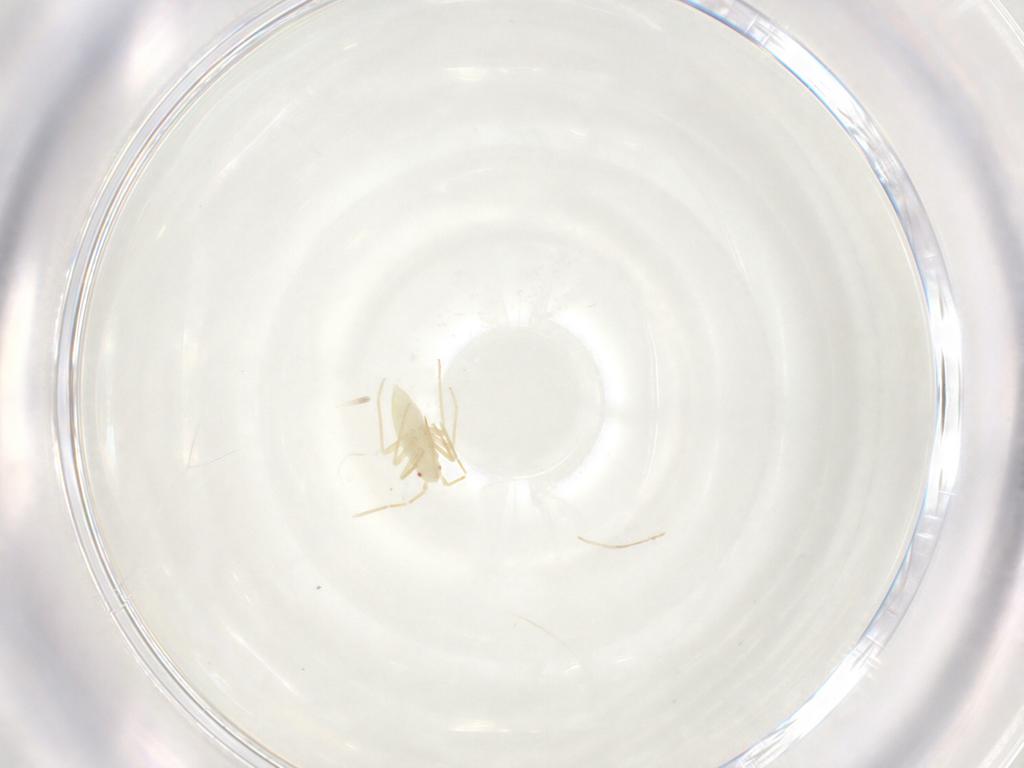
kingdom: Animalia
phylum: Arthropoda
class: Insecta
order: Hemiptera
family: Miridae
